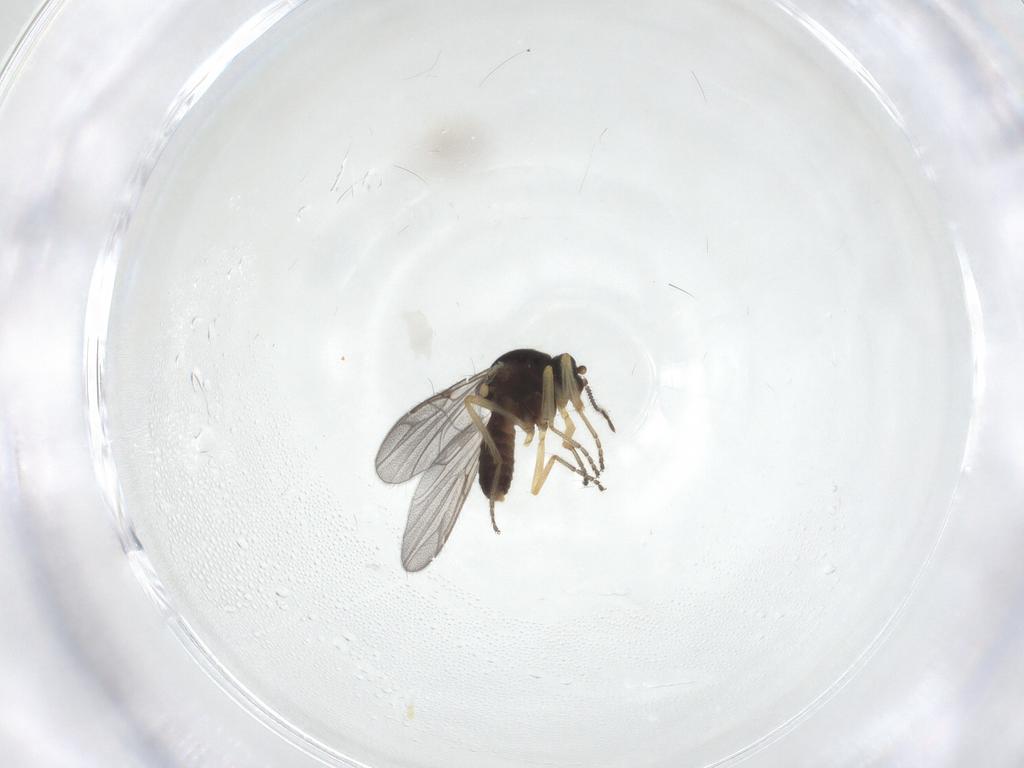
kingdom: Animalia
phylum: Arthropoda
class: Insecta
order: Diptera
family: Ceratopogonidae
